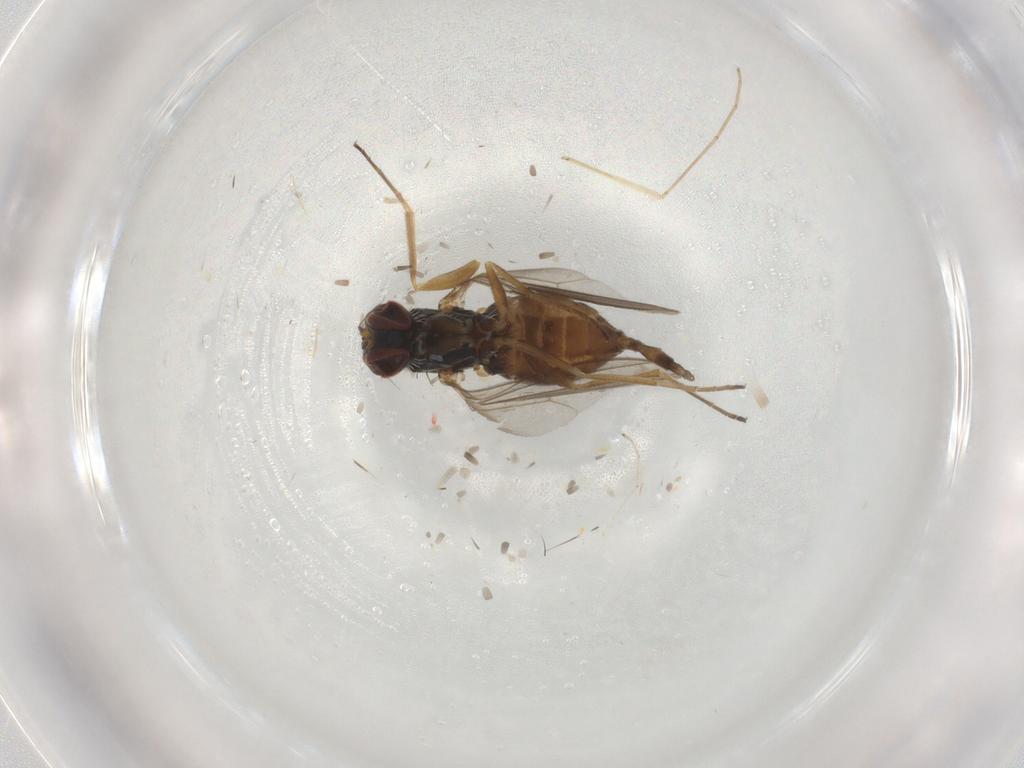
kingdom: Animalia
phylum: Arthropoda
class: Insecta
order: Diptera
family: Dolichopodidae
